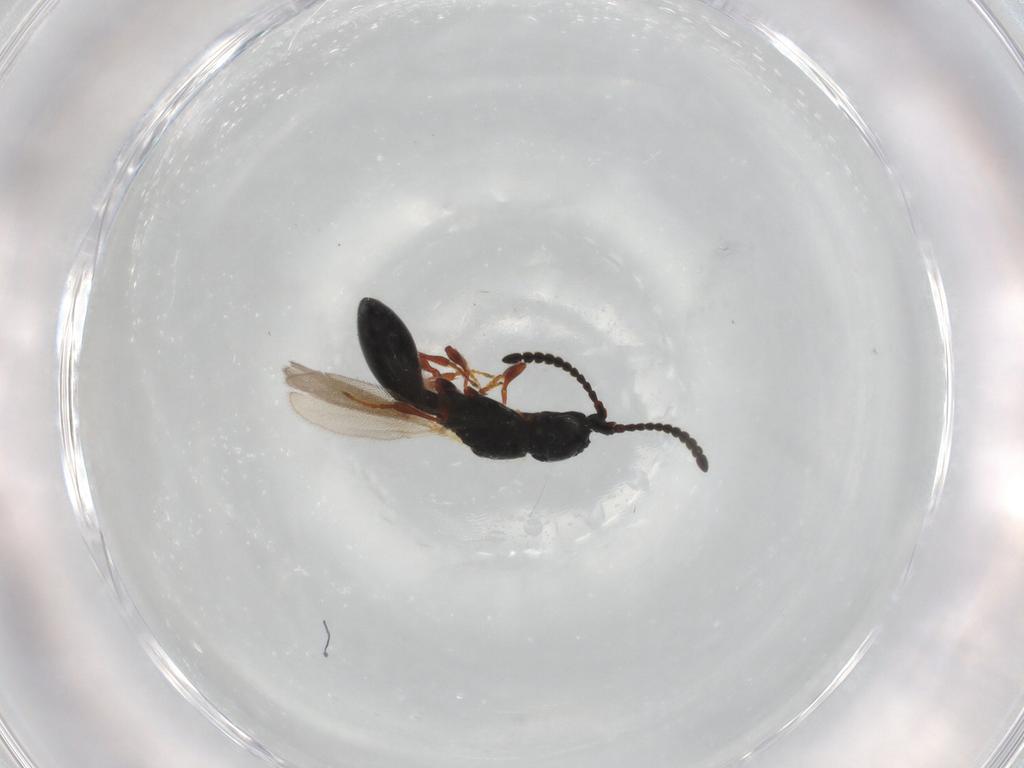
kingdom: Animalia
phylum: Arthropoda
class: Insecta
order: Hymenoptera
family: Diapriidae
